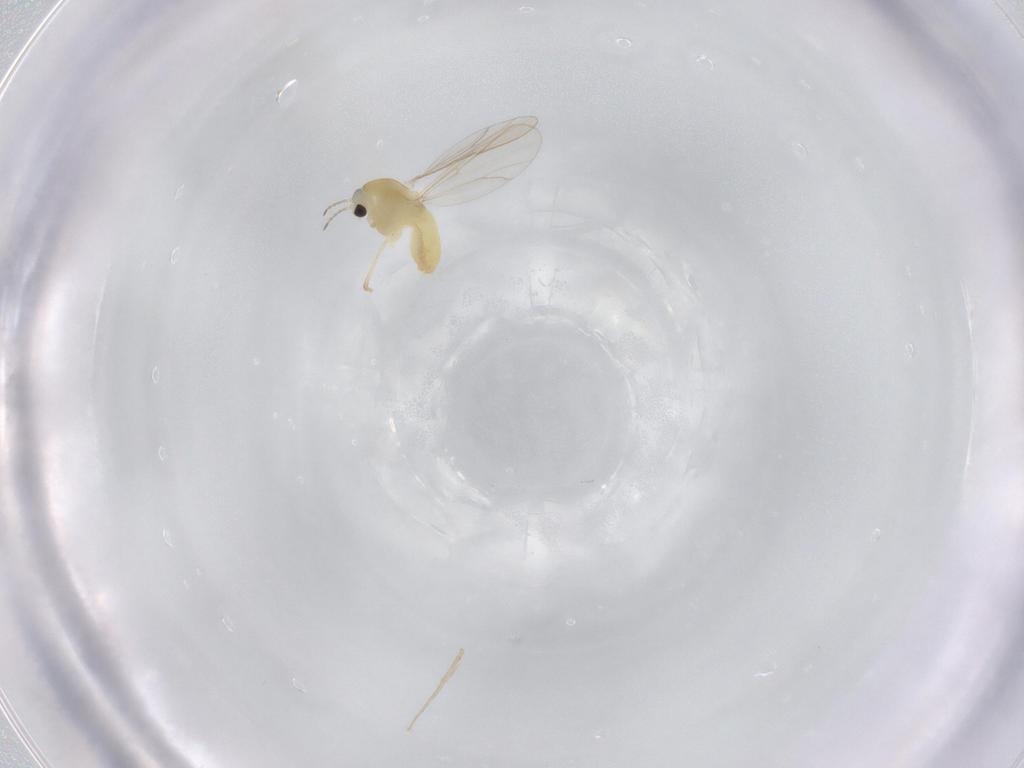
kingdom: Animalia
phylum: Arthropoda
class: Insecta
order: Diptera
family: Chironomidae
